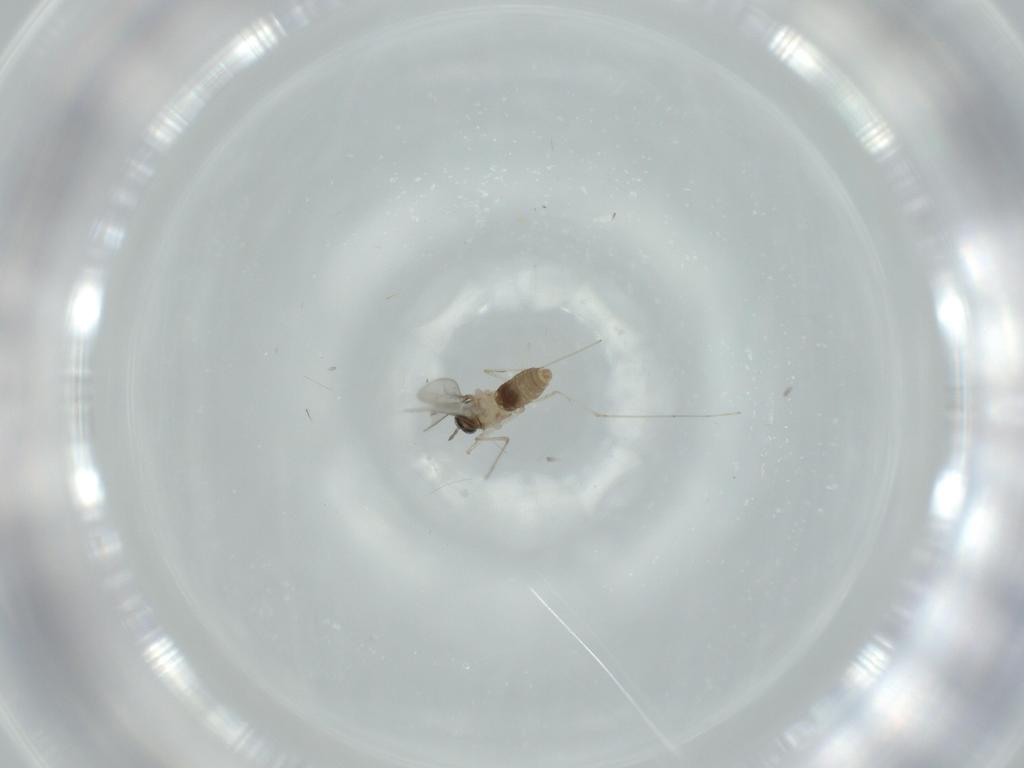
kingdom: Animalia
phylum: Arthropoda
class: Insecta
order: Diptera
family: Cecidomyiidae
